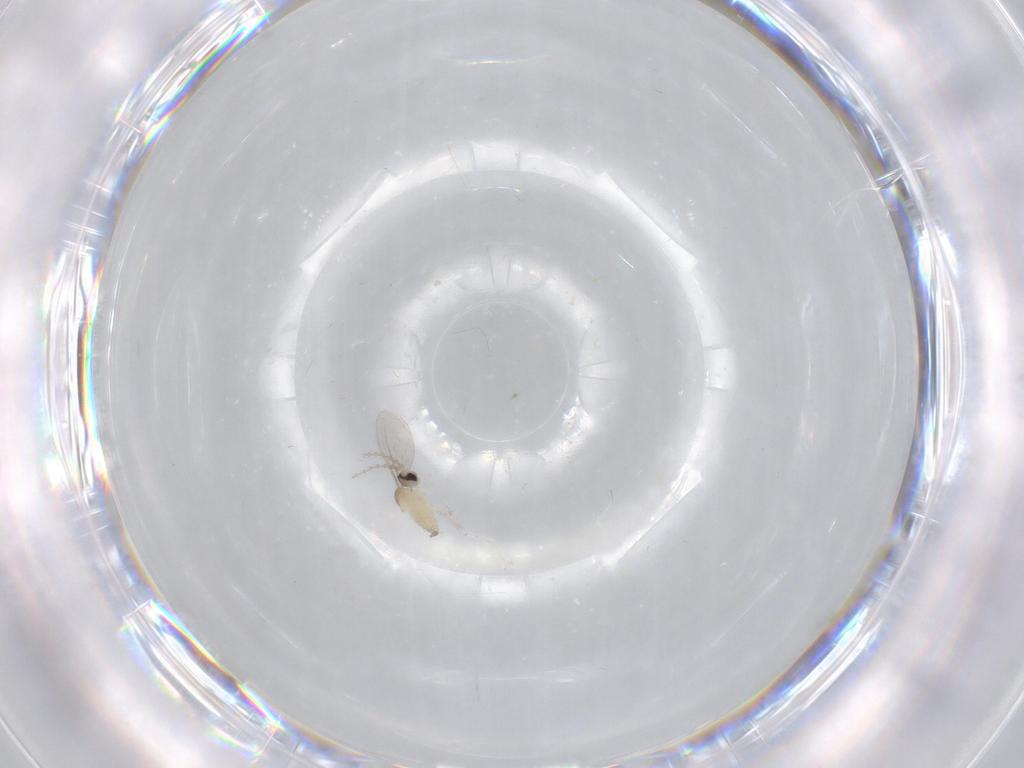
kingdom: Animalia
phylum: Arthropoda
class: Insecta
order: Diptera
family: Cecidomyiidae
